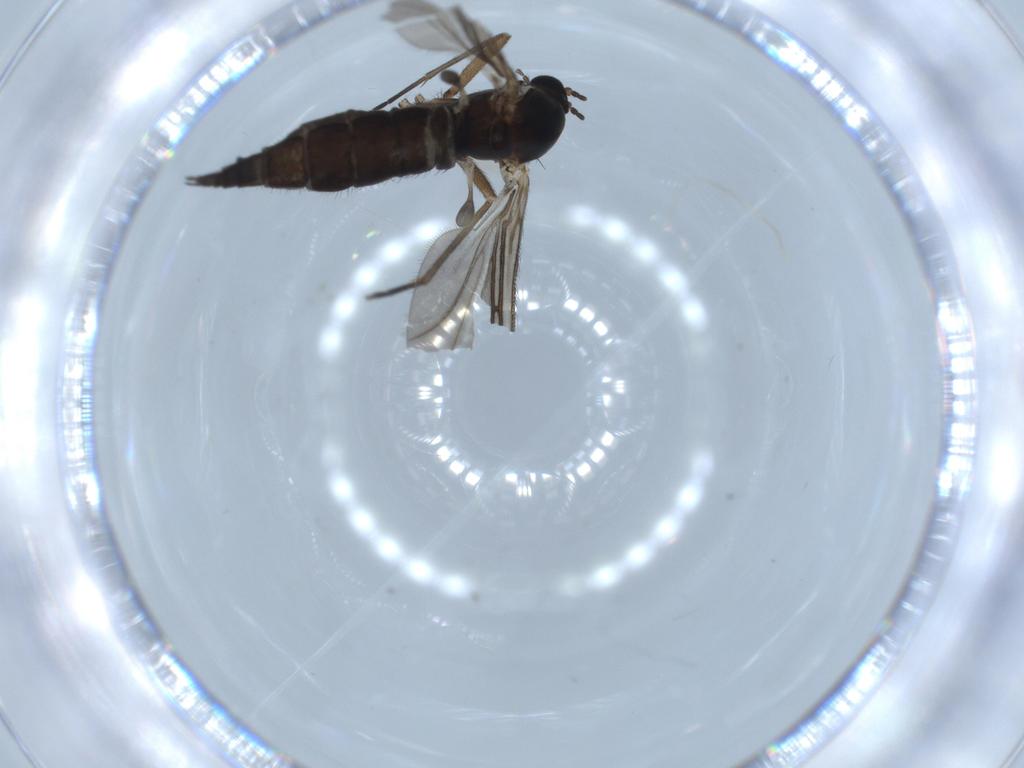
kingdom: Animalia
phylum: Arthropoda
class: Insecta
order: Diptera
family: Sciaridae
